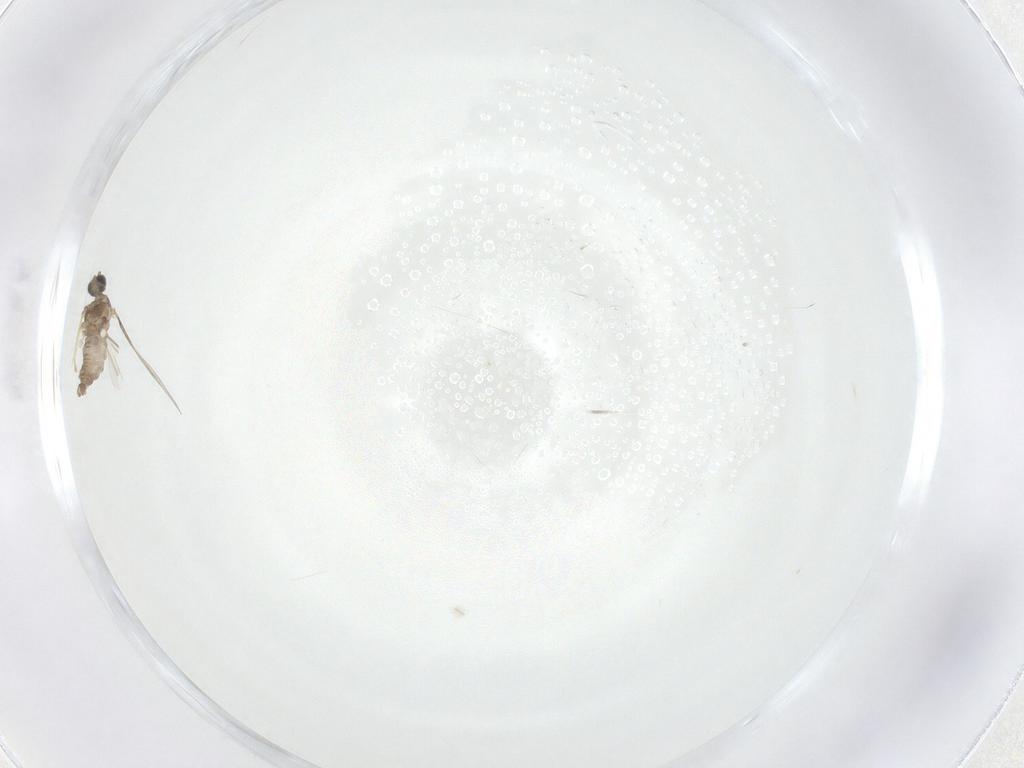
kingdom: Animalia
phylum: Arthropoda
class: Insecta
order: Diptera
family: Cecidomyiidae
